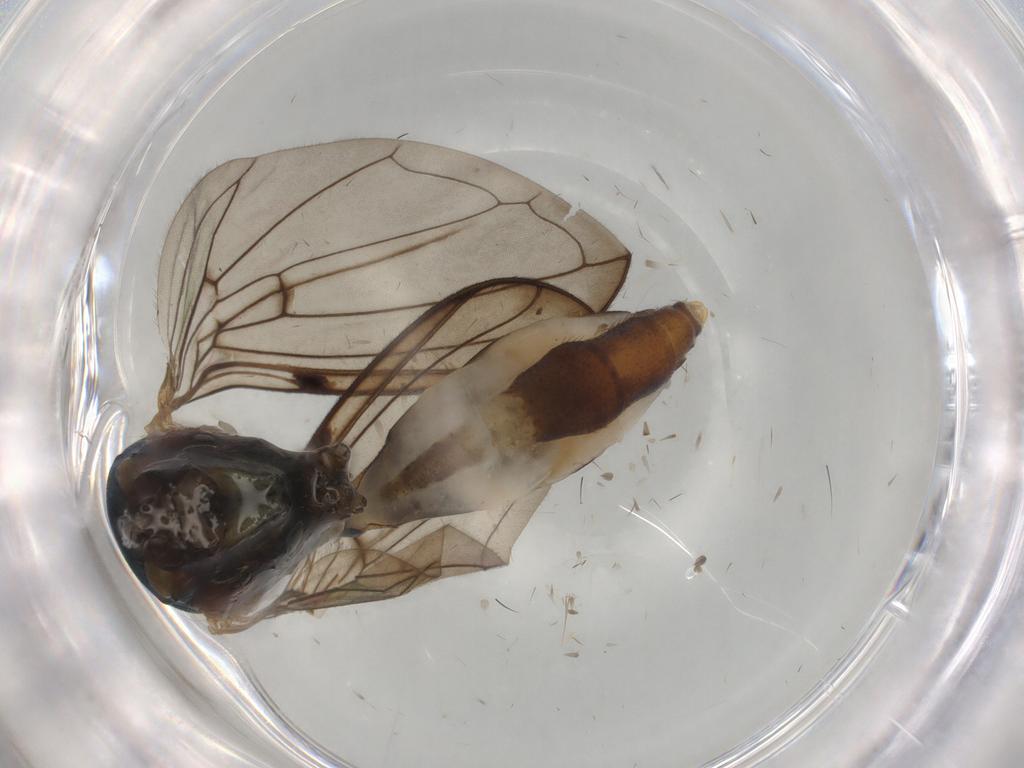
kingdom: Animalia
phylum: Arthropoda
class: Insecta
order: Diptera
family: Syrphidae
